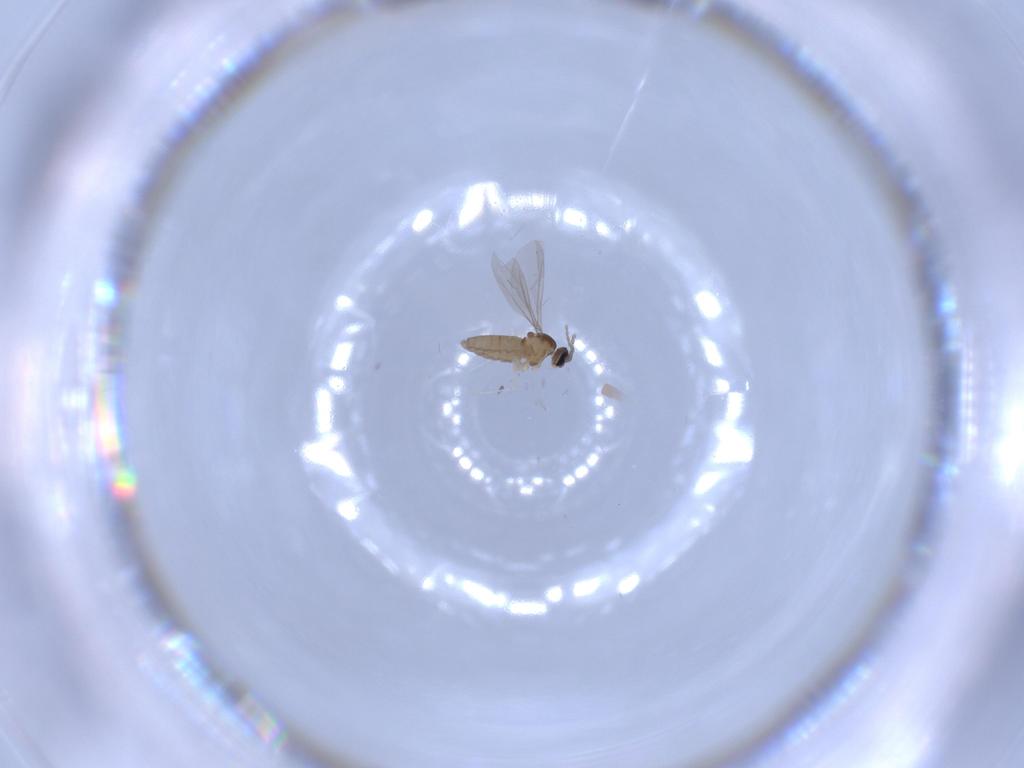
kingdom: Animalia
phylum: Arthropoda
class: Insecta
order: Diptera
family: Cecidomyiidae
